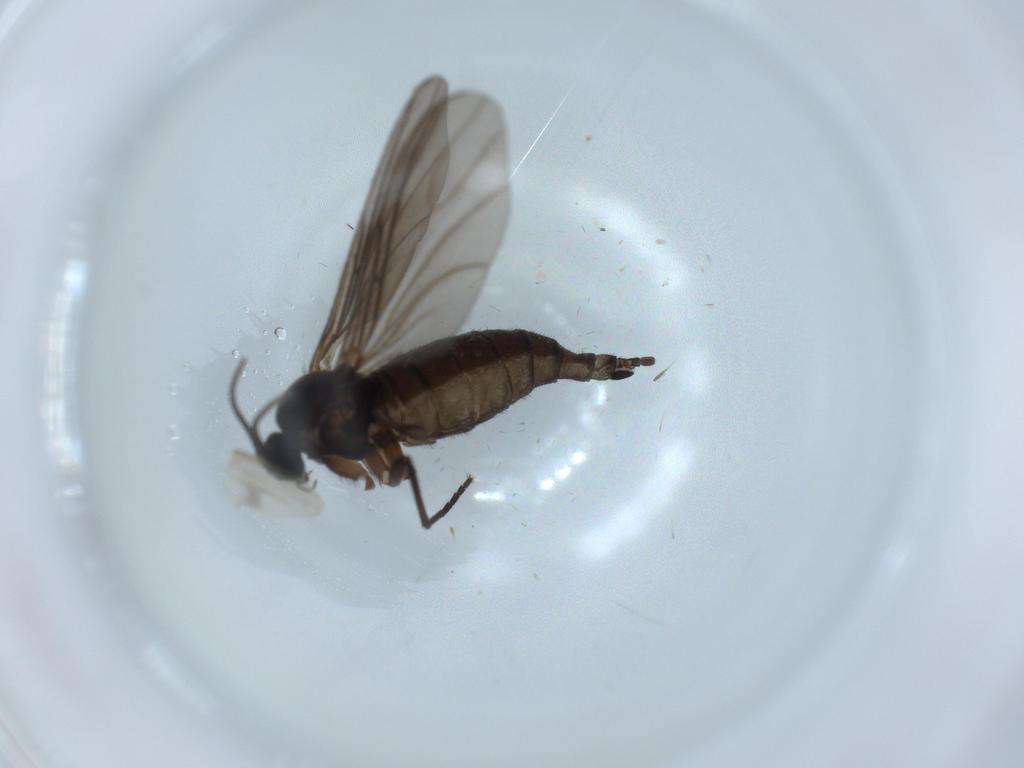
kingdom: Animalia
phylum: Arthropoda
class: Insecta
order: Diptera
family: Sciaridae
